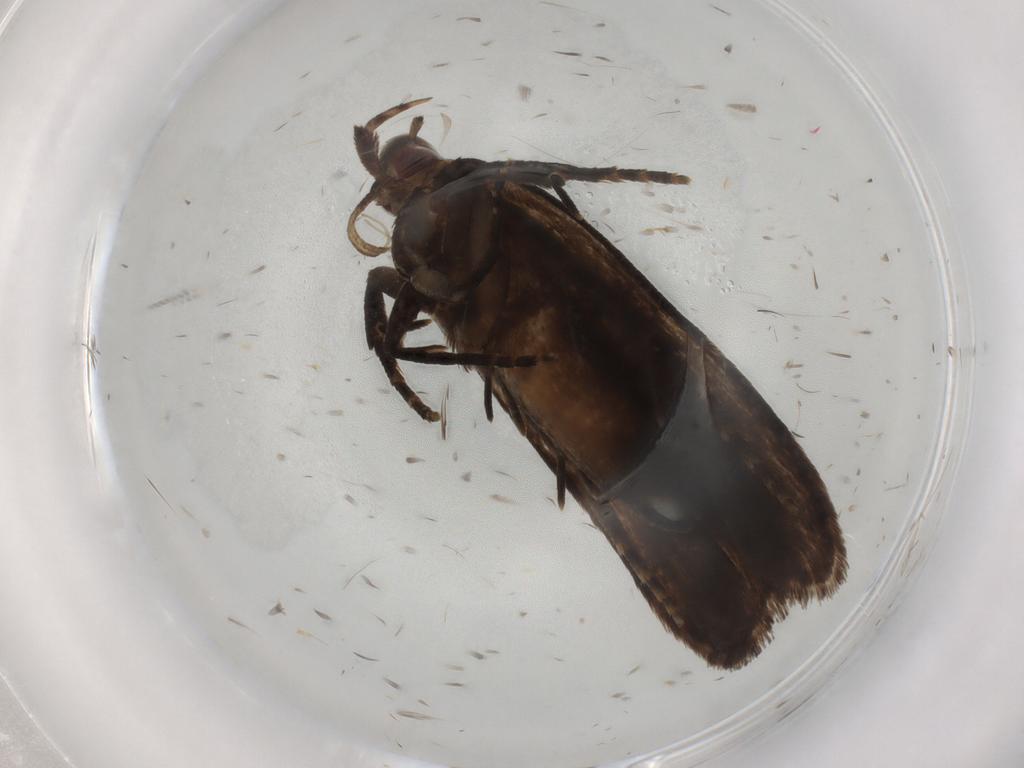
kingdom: Animalia
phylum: Arthropoda
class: Insecta
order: Lepidoptera
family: Gelechiidae
